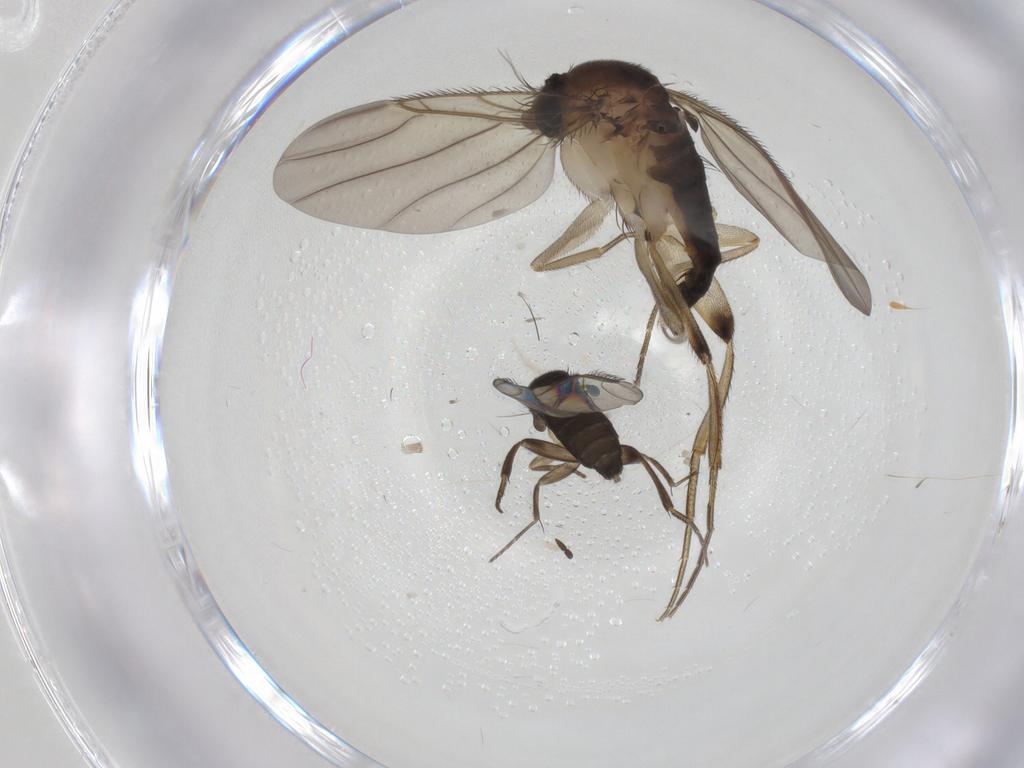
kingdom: Animalia
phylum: Arthropoda
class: Insecta
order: Diptera
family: Phoridae
